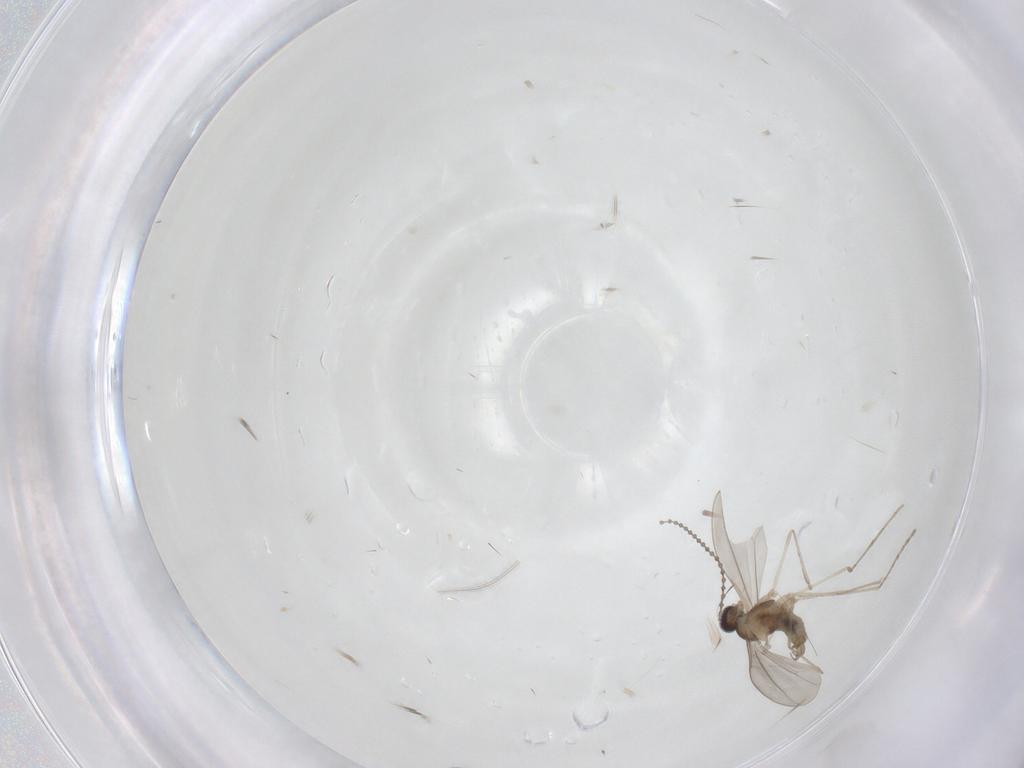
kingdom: Animalia
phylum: Arthropoda
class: Insecta
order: Diptera
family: Cecidomyiidae
